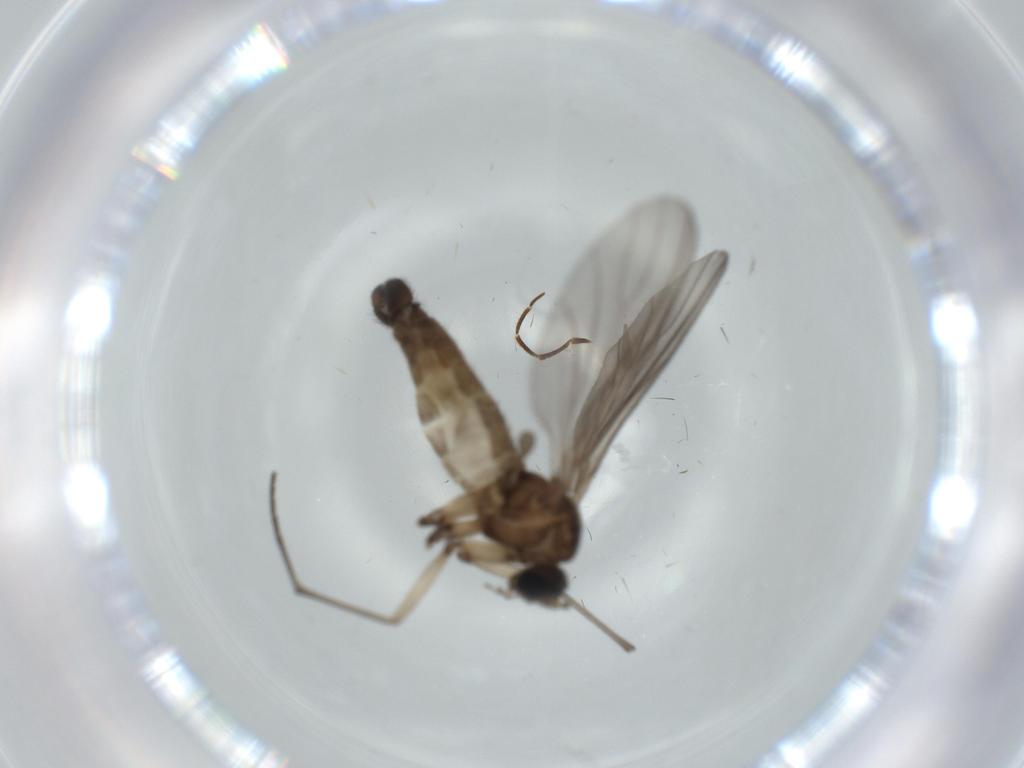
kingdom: Animalia
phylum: Arthropoda
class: Insecta
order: Diptera
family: Sciaridae
